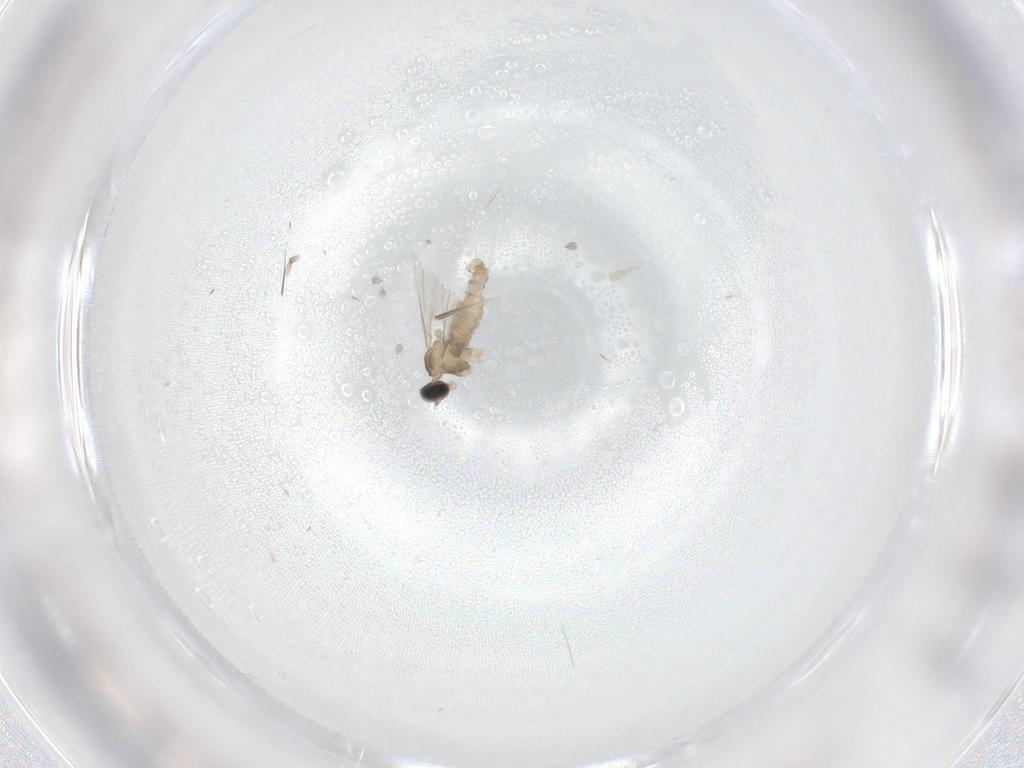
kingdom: Animalia
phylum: Arthropoda
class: Insecta
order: Diptera
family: Cecidomyiidae
